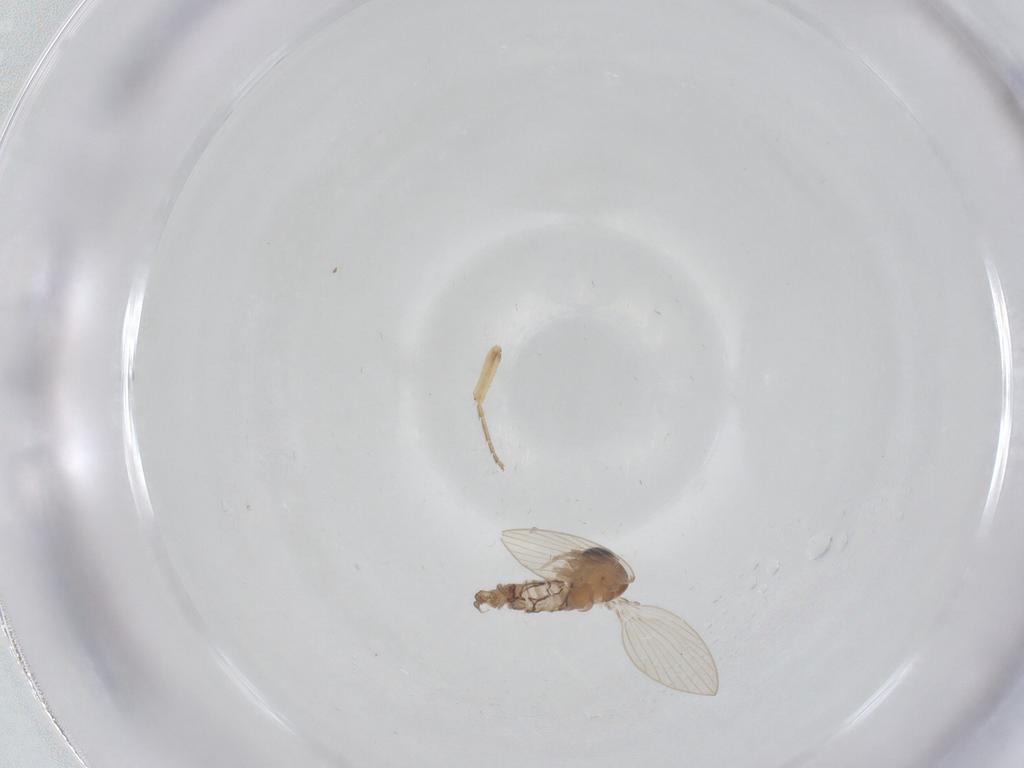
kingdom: Animalia
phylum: Arthropoda
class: Insecta
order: Diptera
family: Psychodidae
